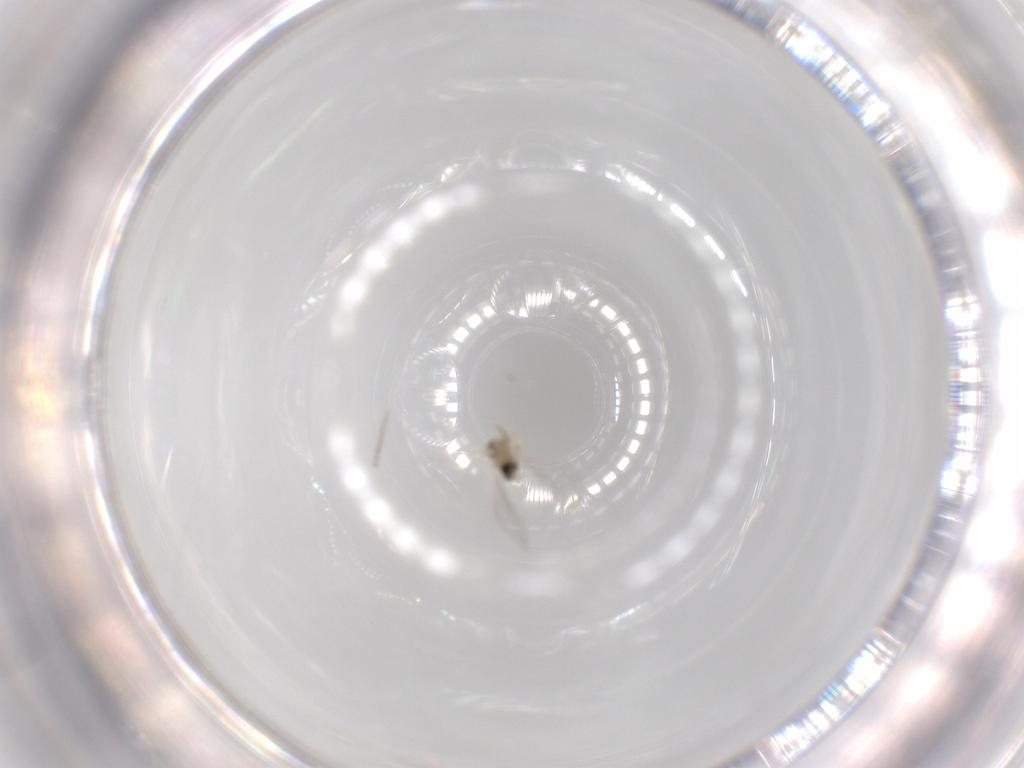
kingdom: Animalia
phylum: Arthropoda
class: Insecta
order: Diptera
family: Cecidomyiidae
